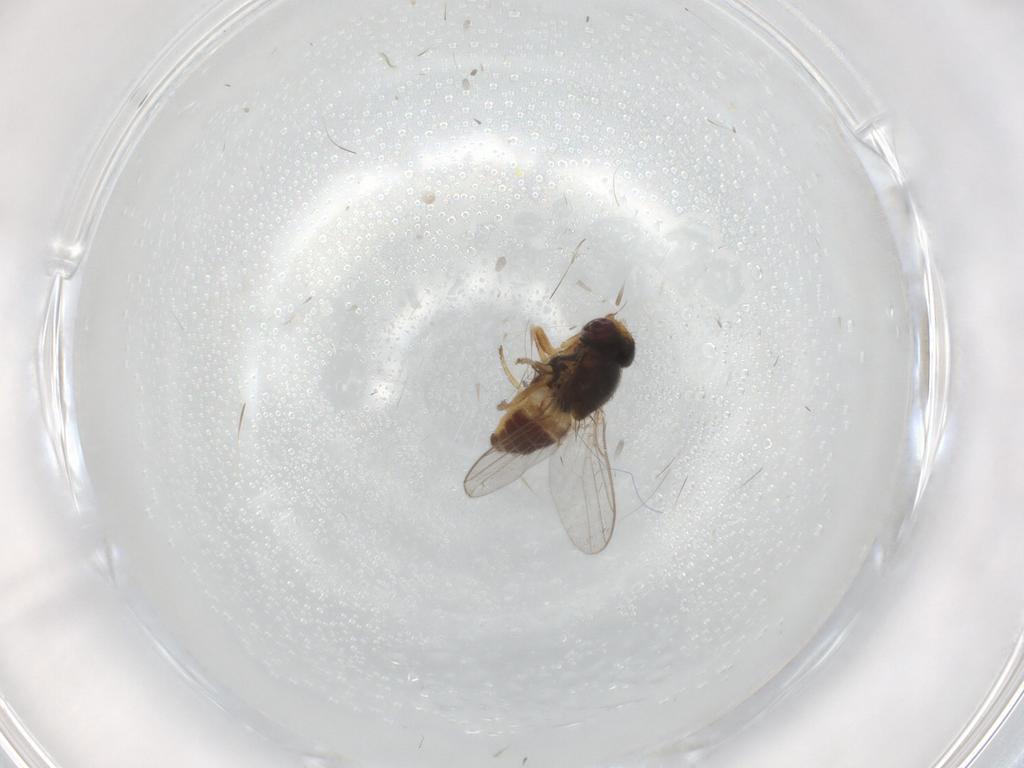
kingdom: Animalia
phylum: Arthropoda
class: Insecta
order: Diptera
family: Chloropidae
